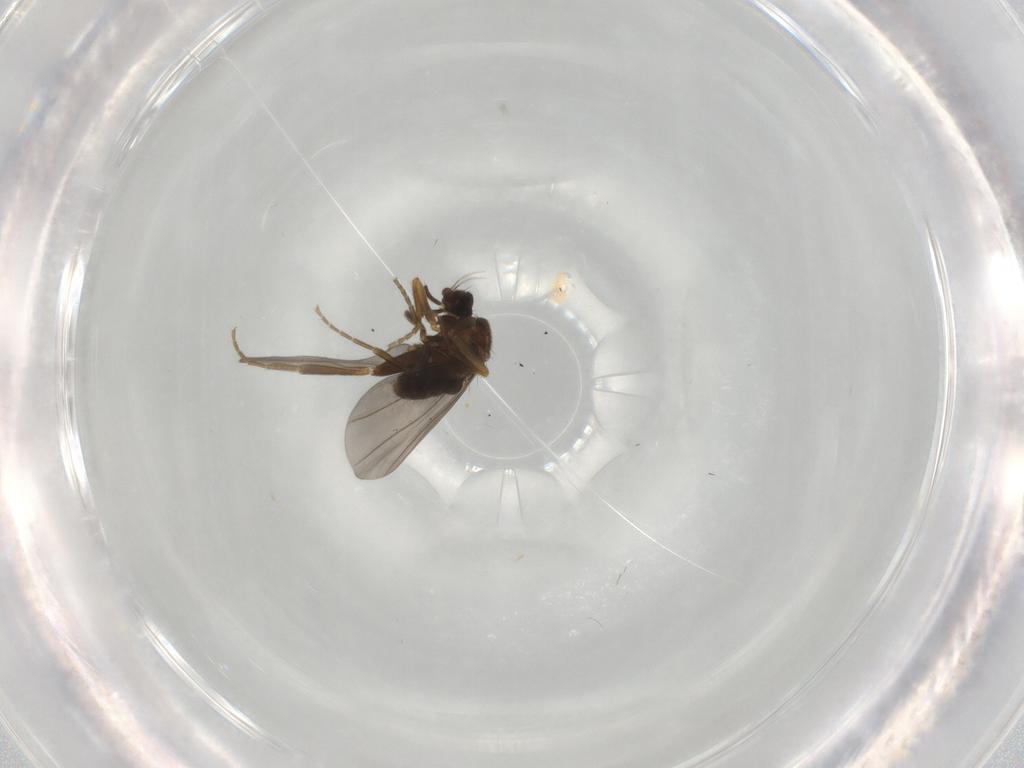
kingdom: Animalia
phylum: Arthropoda
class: Insecta
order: Diptera
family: Phoridae
